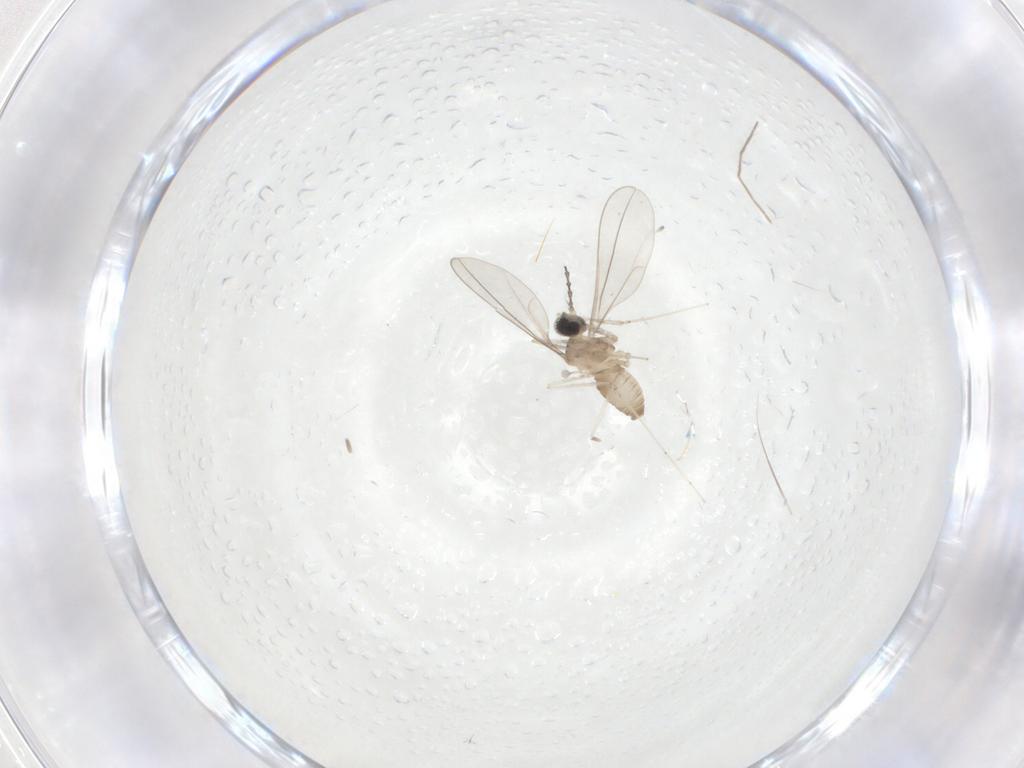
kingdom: Animalia
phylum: Arthropoda
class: Insecta
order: Diptera
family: Cecidomyiidae
